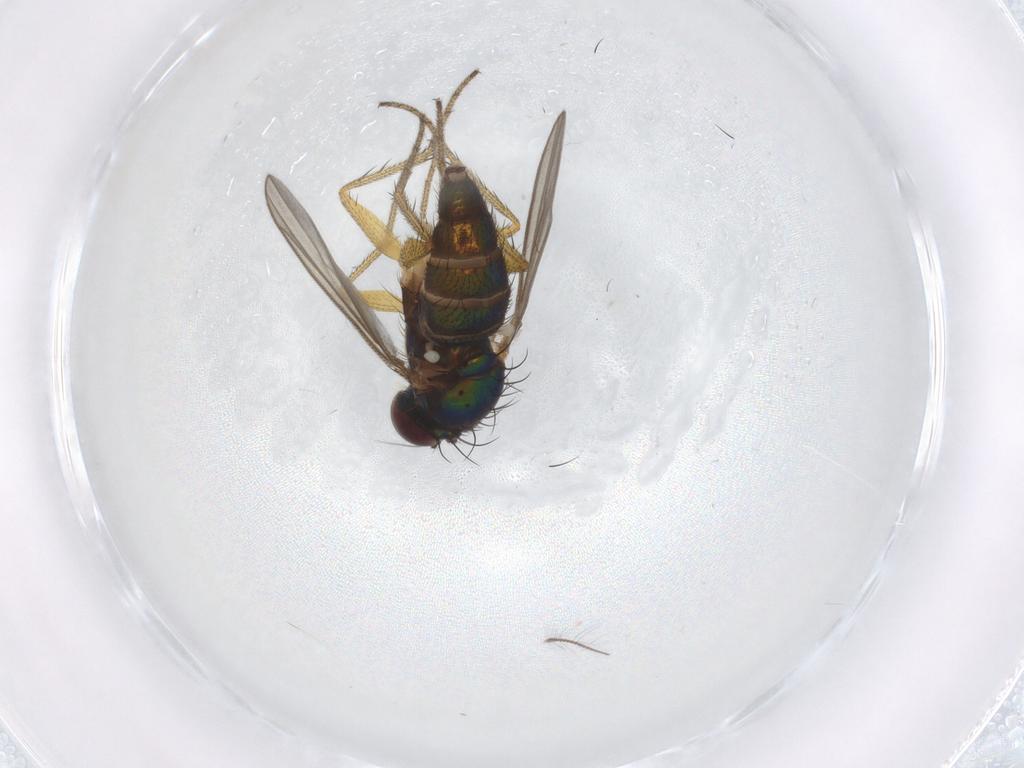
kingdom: Animalia
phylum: Arthropoda
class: Insecta
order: Diptera
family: Dolichopodidae
